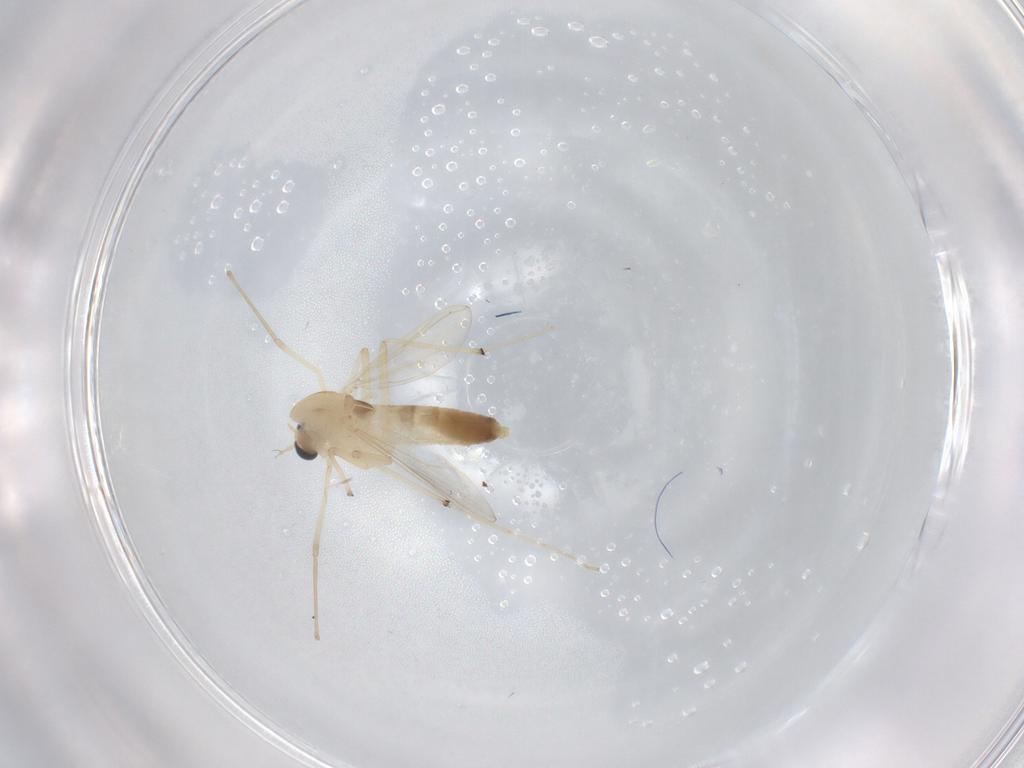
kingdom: Animalia
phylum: Arthropoda
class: Insecta
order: Diptera
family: Chironomidae
